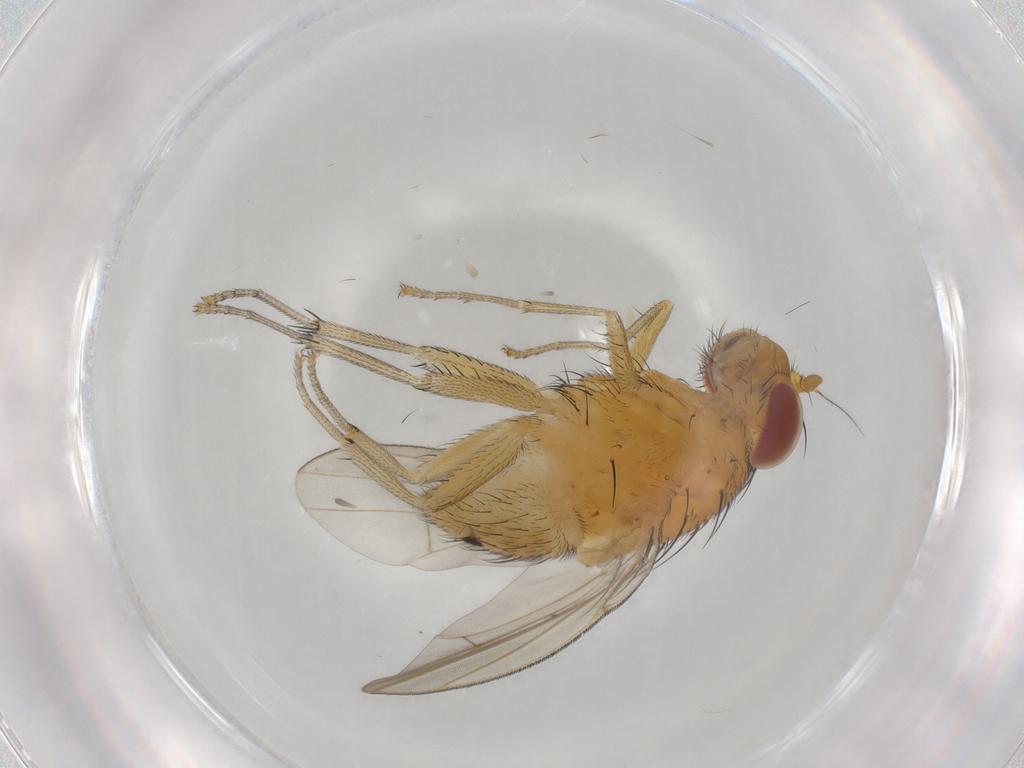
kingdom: Animalia
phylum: Arthropoda
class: Insecta
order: Diptera
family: Lauxaniidae
